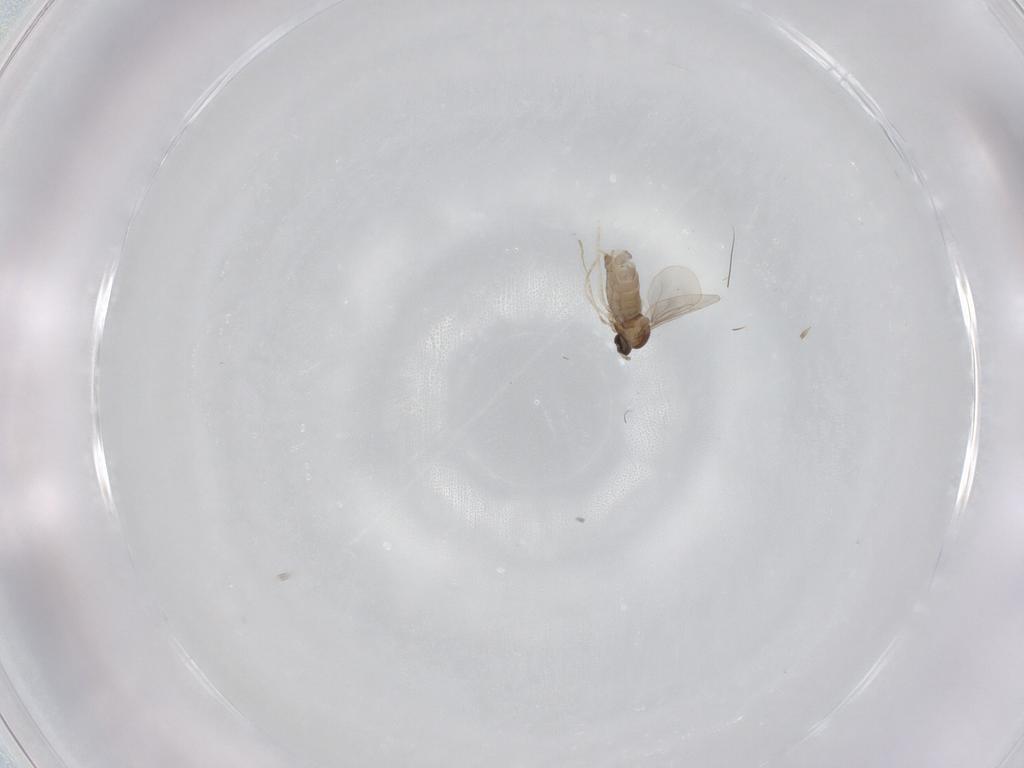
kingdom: Animalia
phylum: Arthropoda
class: Insecta
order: Diptera
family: Cecidomyiidae
